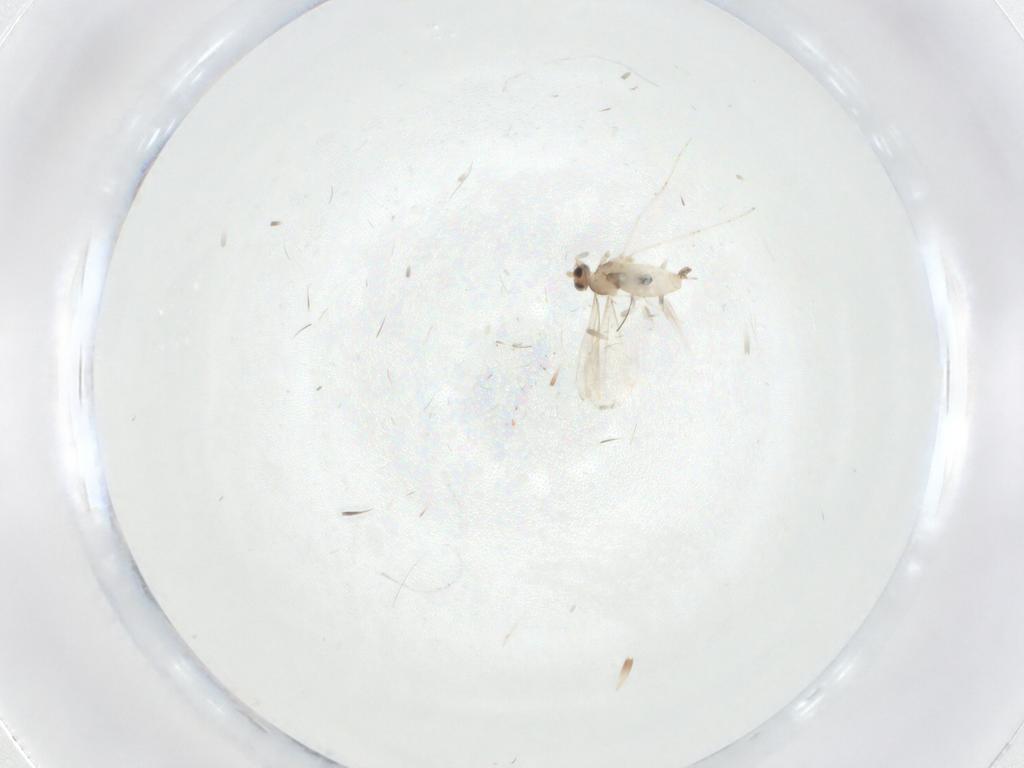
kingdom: Animalia
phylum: Arthropoda
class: Insecta
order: Diptera
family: Cecidomyiidae
